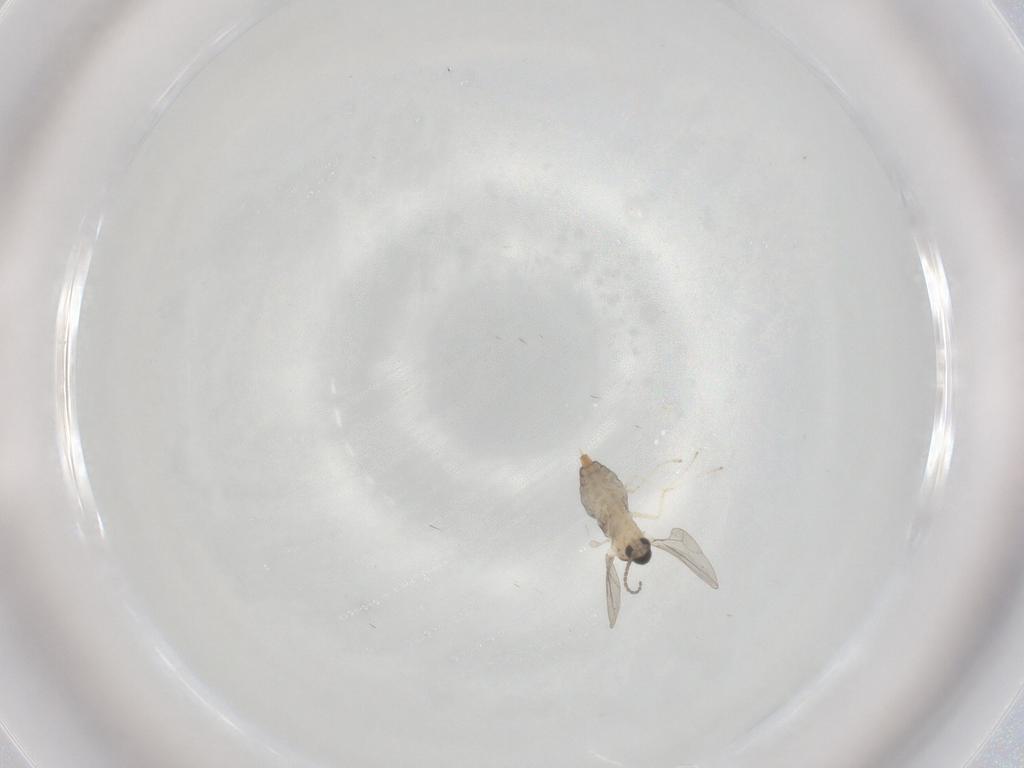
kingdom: Animalia
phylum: Arthropoda
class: Insecta
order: Diptera
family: Cecidomyiidae
